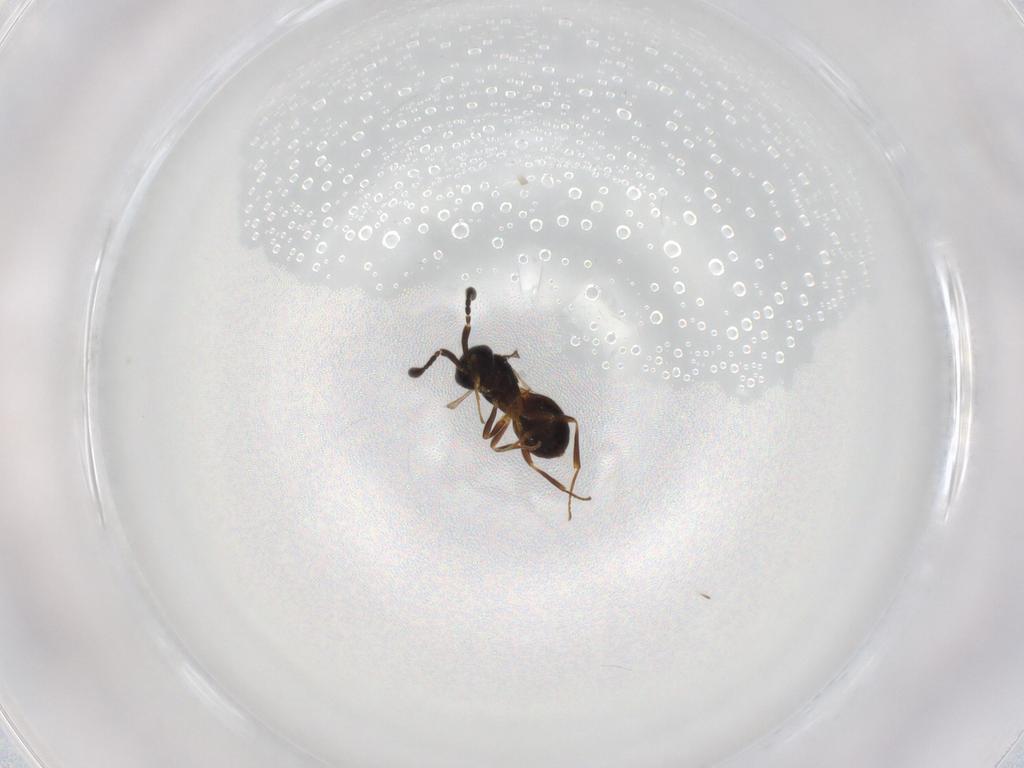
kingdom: Animalia
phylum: Arthropoda
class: Insecta
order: Hymenoptera
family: Scelionidae
